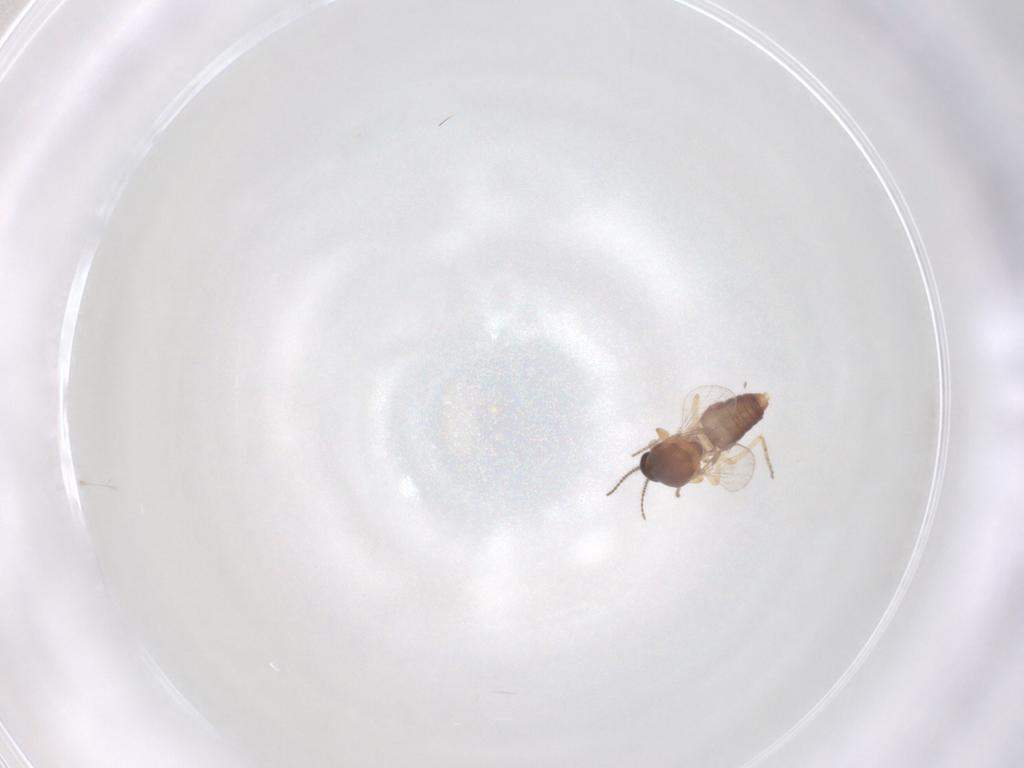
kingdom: Animalia
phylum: Arthropoda
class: Insecta
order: Diptera
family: Ceratopogonidae
